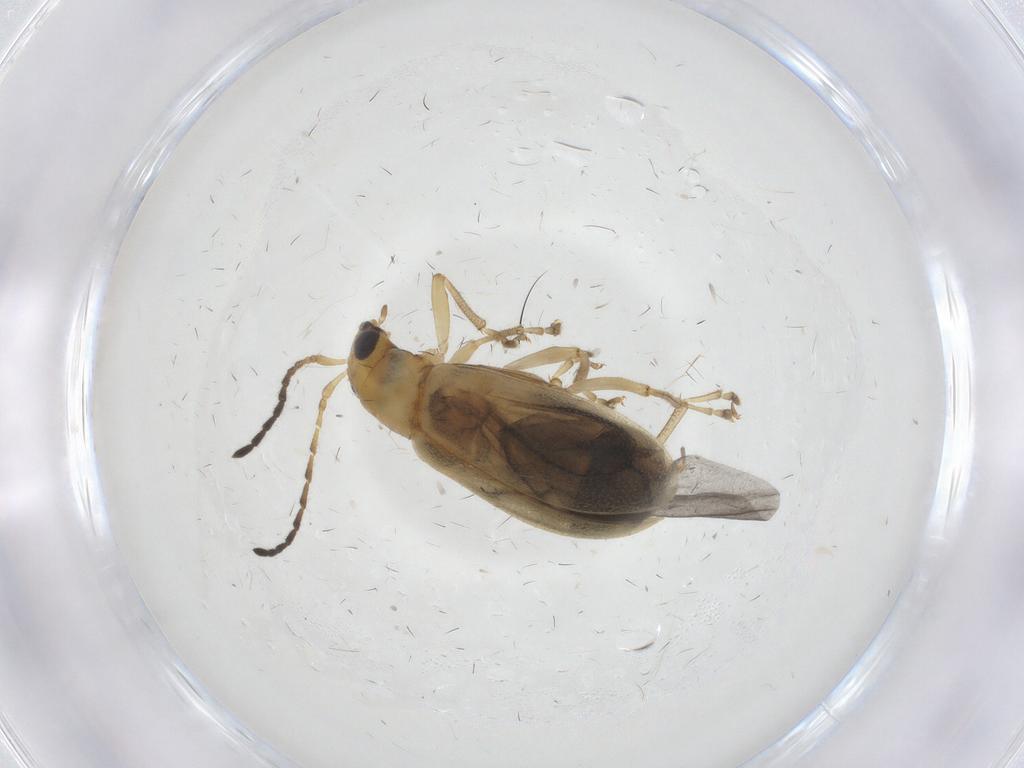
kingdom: Animalia
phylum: Arthropoda
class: Insecta
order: Coleoptera
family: Chrysomelidae
